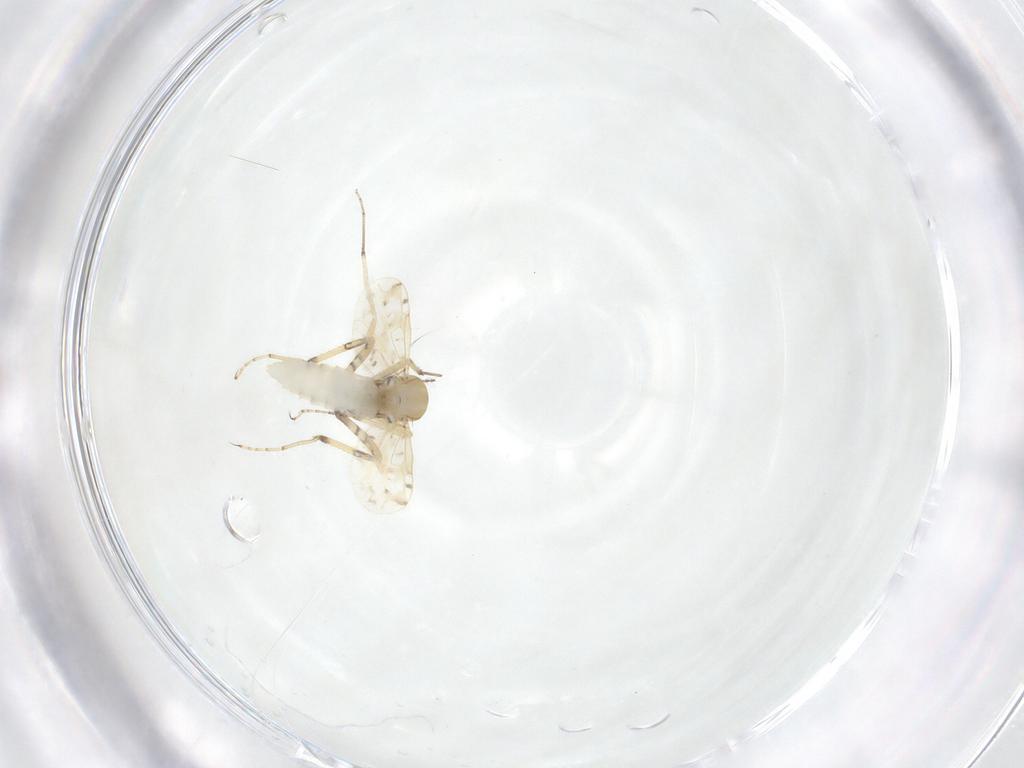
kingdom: Animalia
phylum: Arthropoda
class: Insecta
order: Diptera
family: Ceratopogonidae
